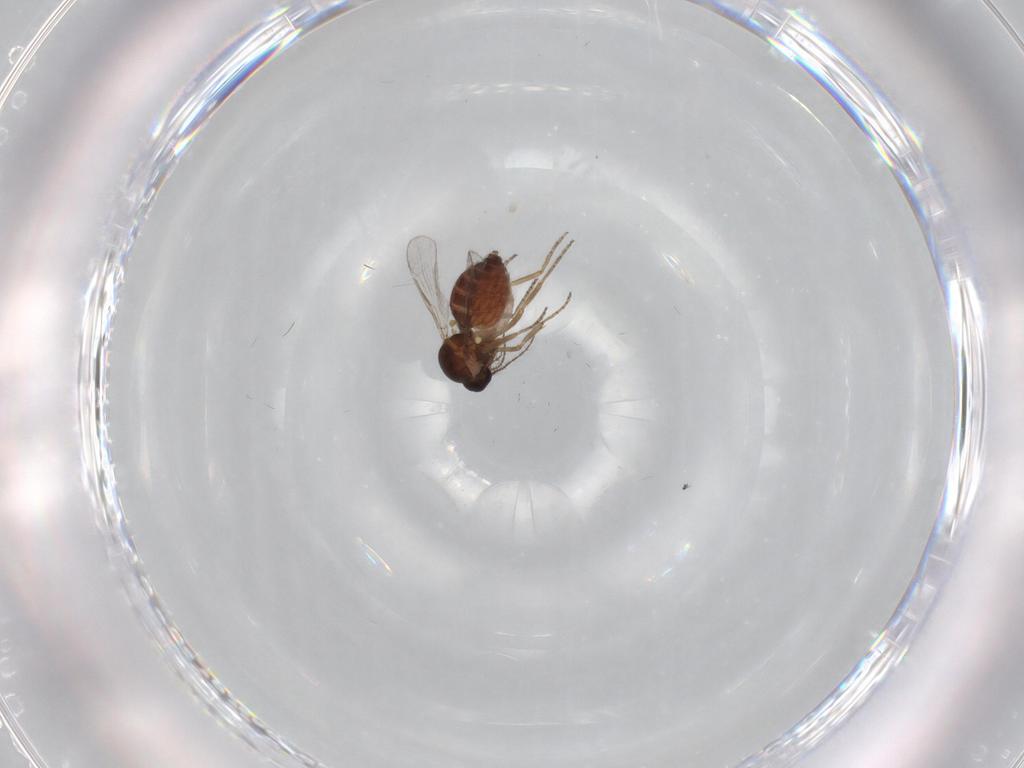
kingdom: Animalia
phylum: Arthropoda
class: Insecta
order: Diptera
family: Ceratopogonidae
